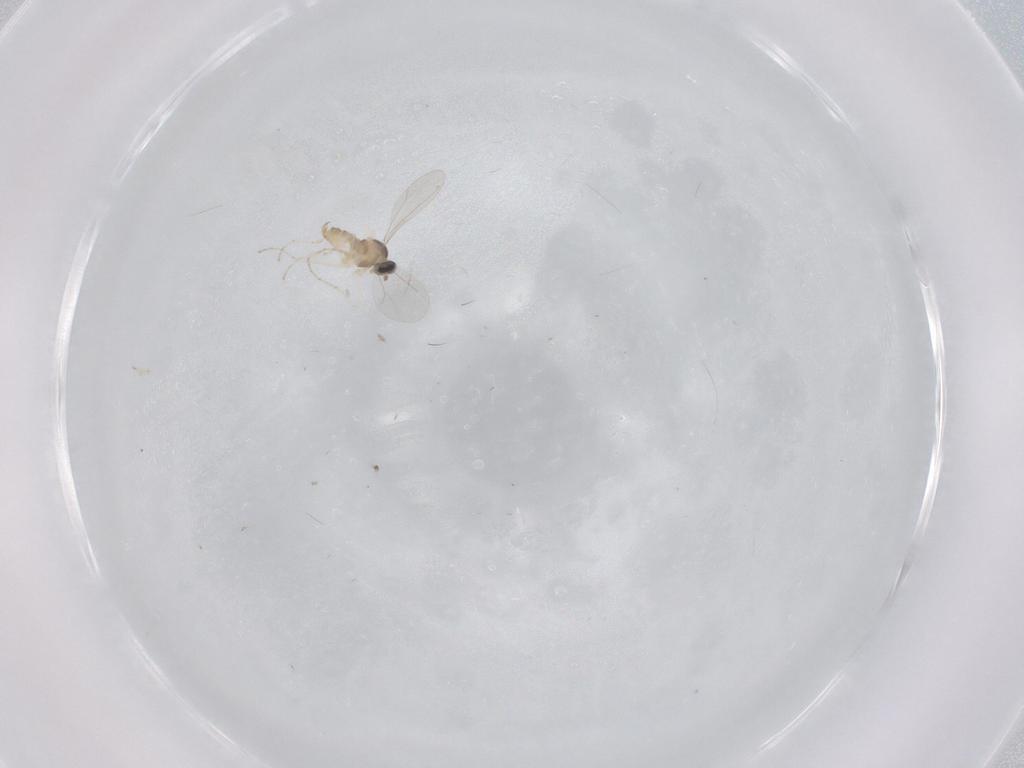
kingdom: Animalia
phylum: Arthropoda
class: Insecta
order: Diptera
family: Cecidomyiidae
